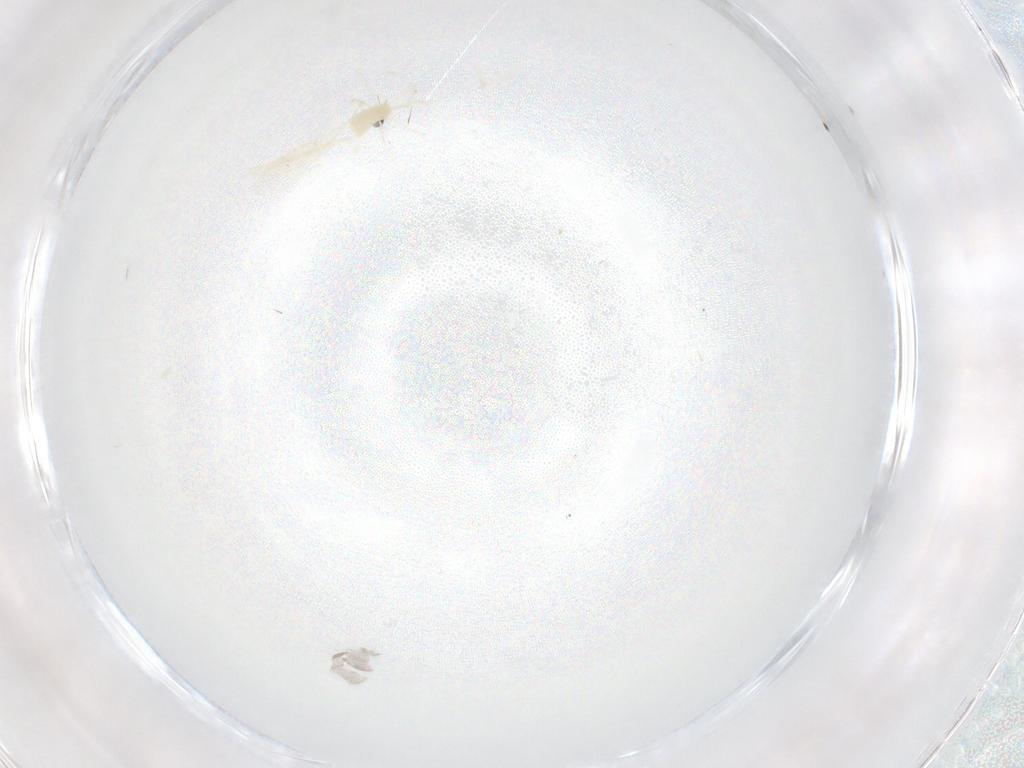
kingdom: Animalia
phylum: Arthropoda
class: Insecta
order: Diptera
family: Cecidomyiidae
